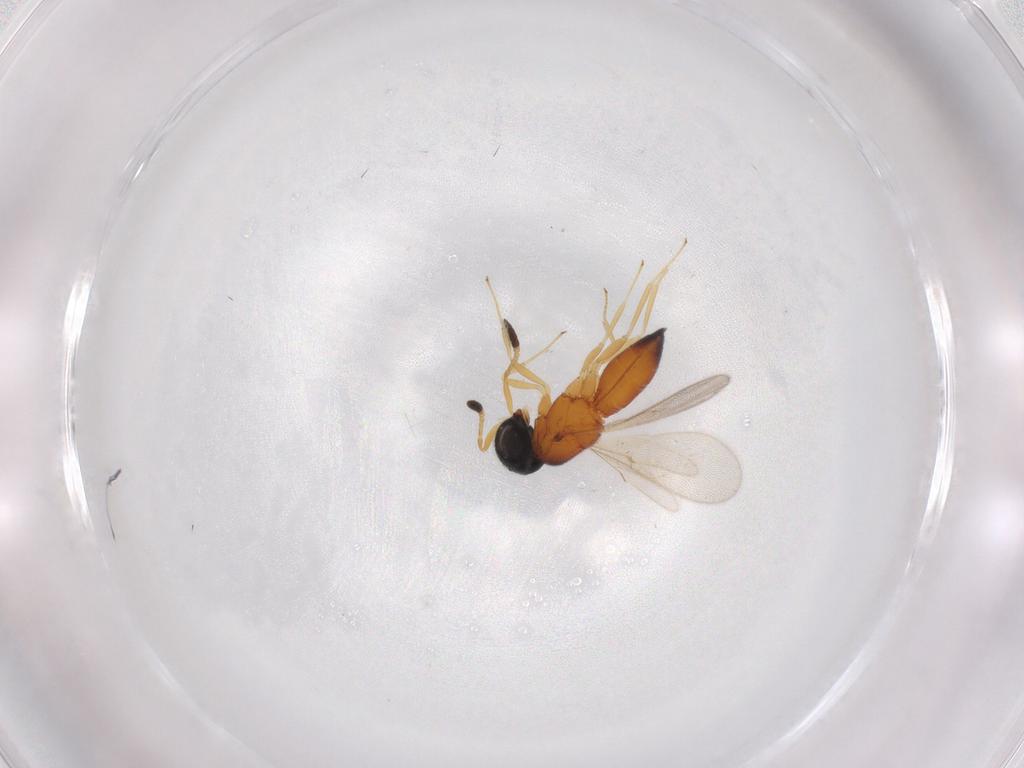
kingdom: Animalia
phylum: Arthropoda
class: Insecta
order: Hymenoptera
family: Scelionidae
